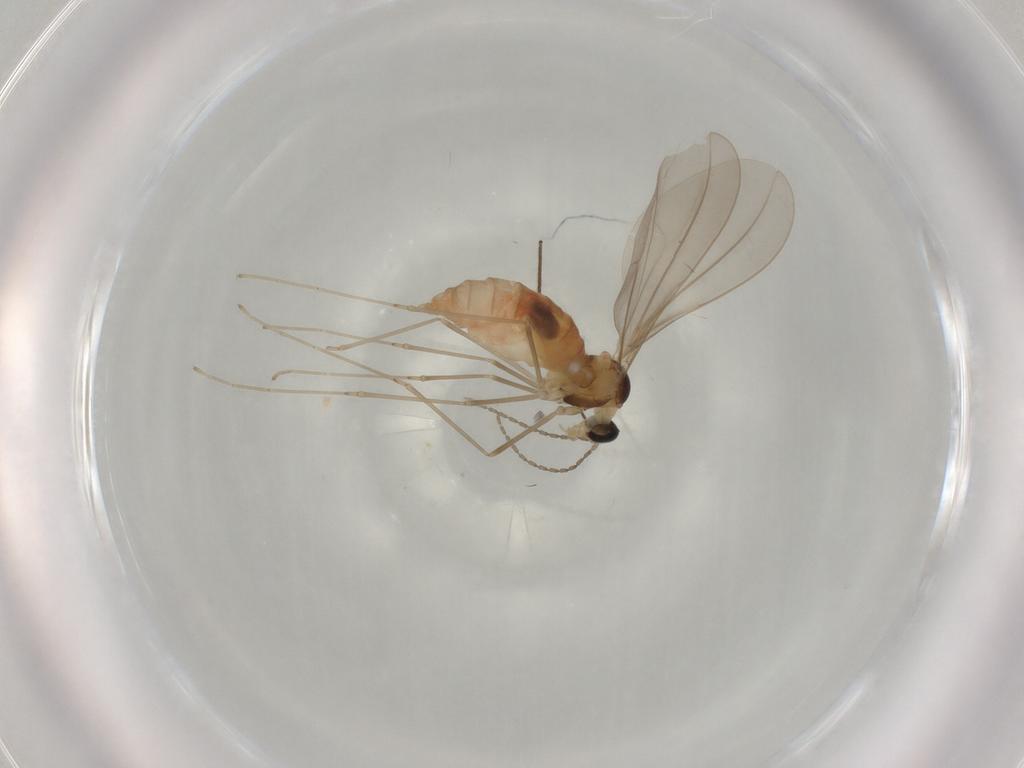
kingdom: Animalia
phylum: Arthropoda
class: Insecta
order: Diptera
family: Cecidomyiidae
